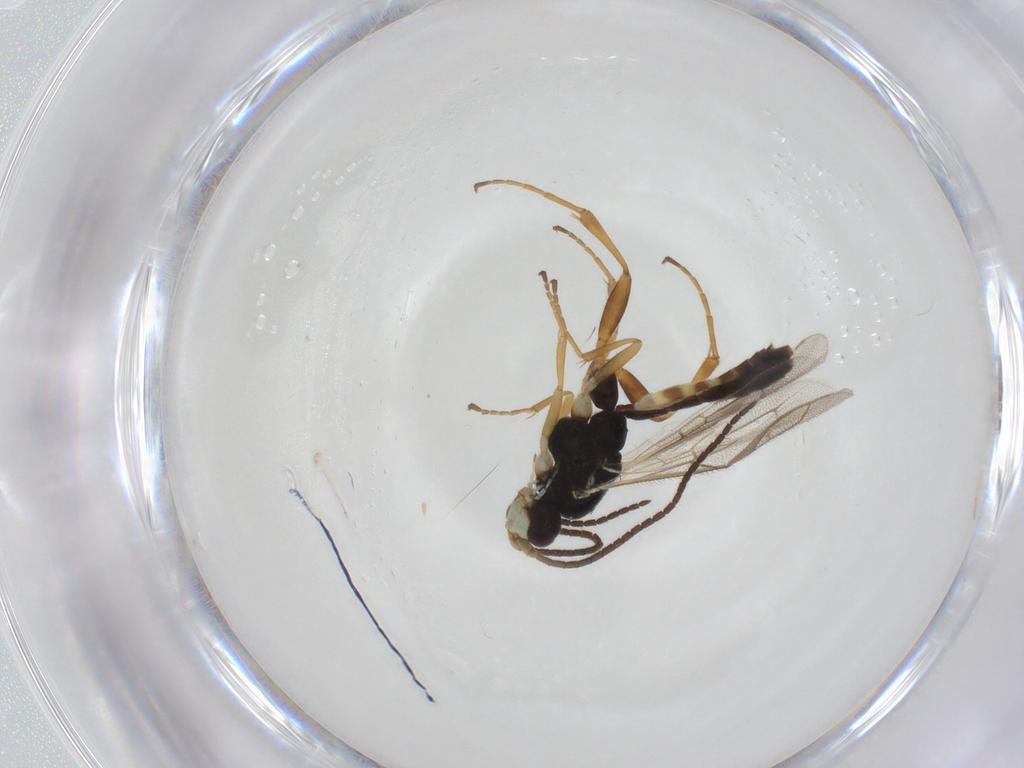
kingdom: Animalia
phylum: Arthropoda
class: Insecta
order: Hymenoptera
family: Ichneumonidae
